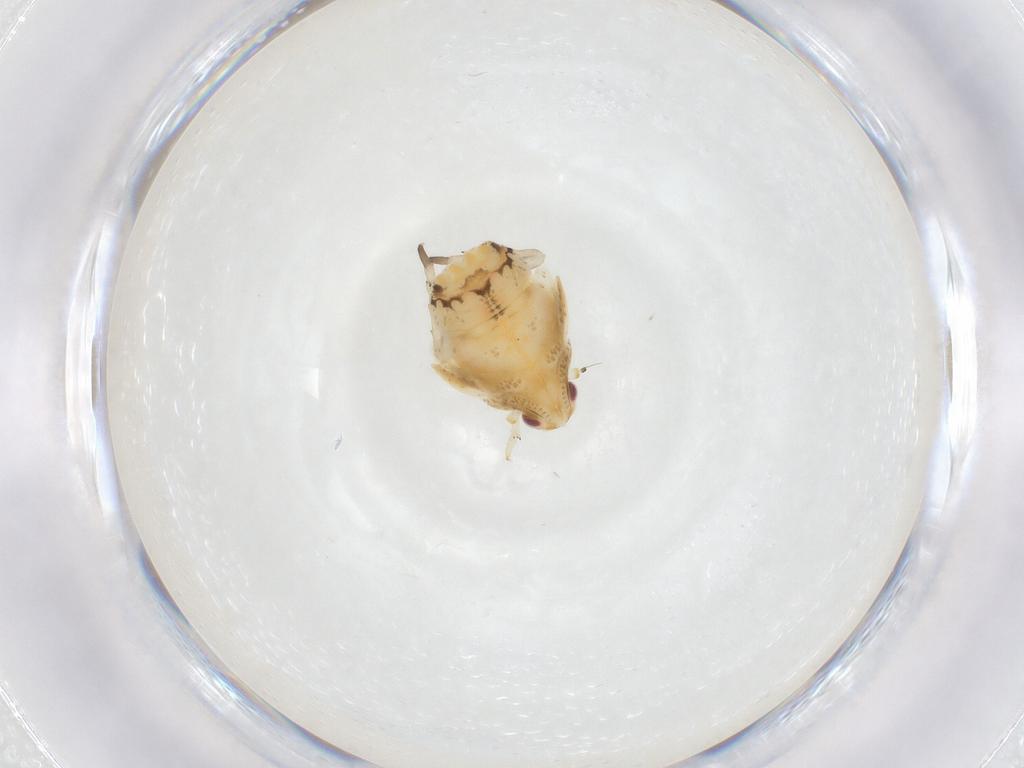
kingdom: Animalia
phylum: Arthropoda
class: Insecta
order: Hemiptera
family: Tropiduchidae
